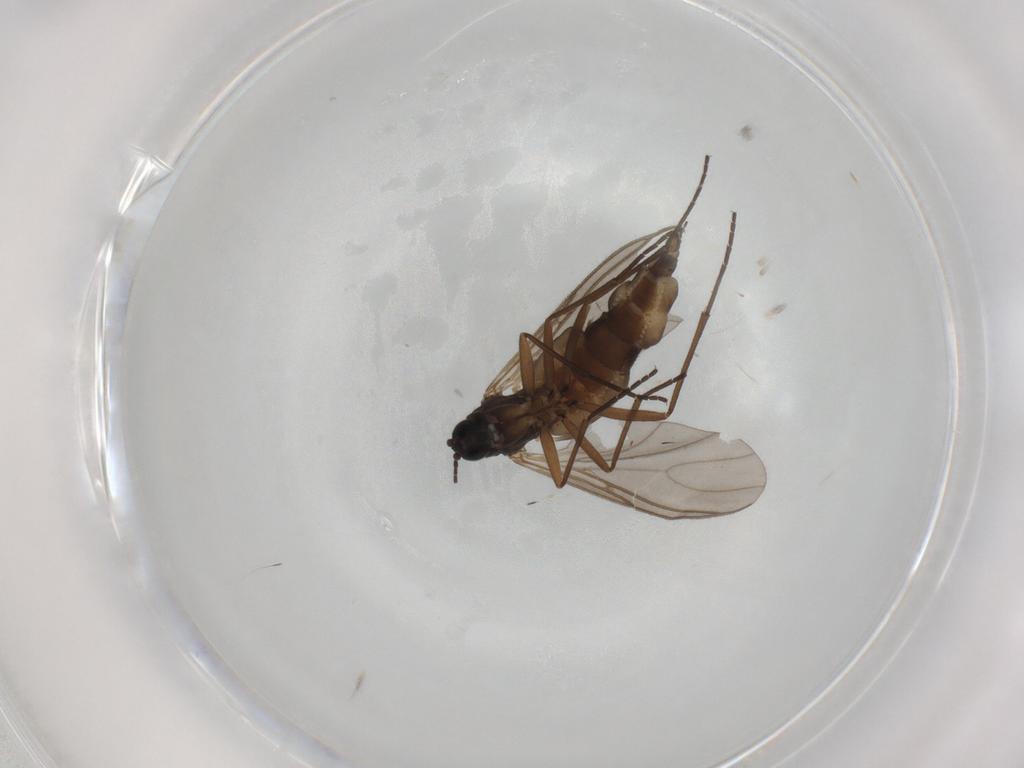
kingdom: Animalia
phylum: Arthropoda
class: Insecta
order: Diptera
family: Sciaridae
